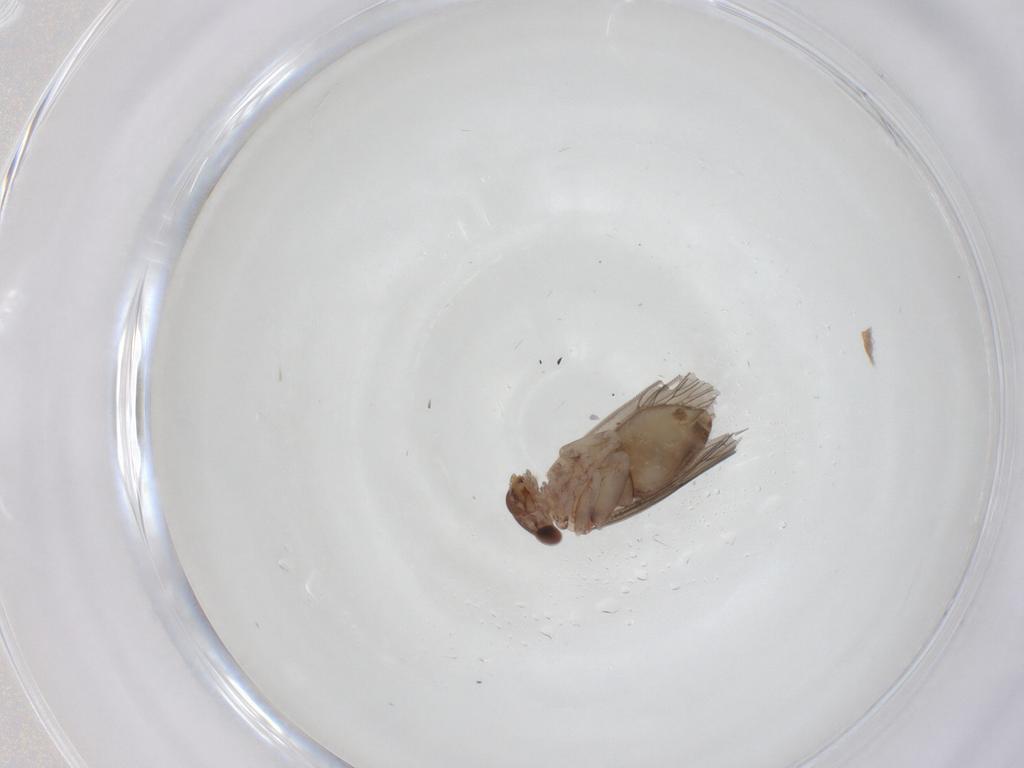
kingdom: Animalia
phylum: Arthropoda
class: Insecta
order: Psocodea
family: Lepidopsocidae
